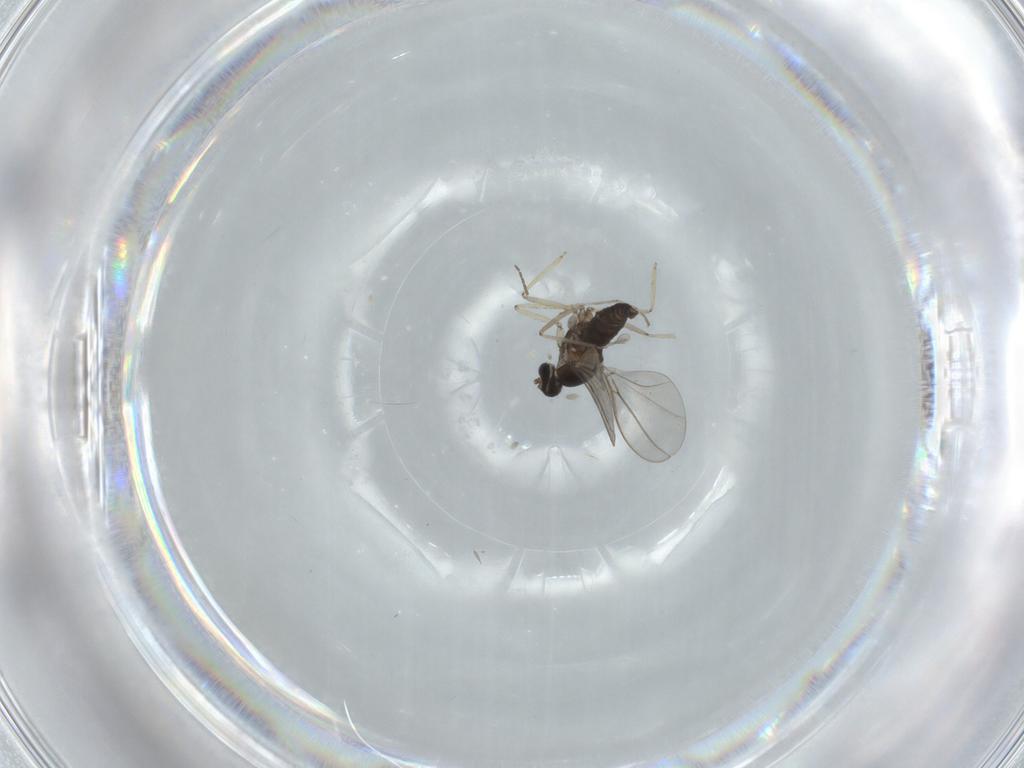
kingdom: Animalia
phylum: Arthropoda
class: Insecta
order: Diptera
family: Cecidomyiidae
